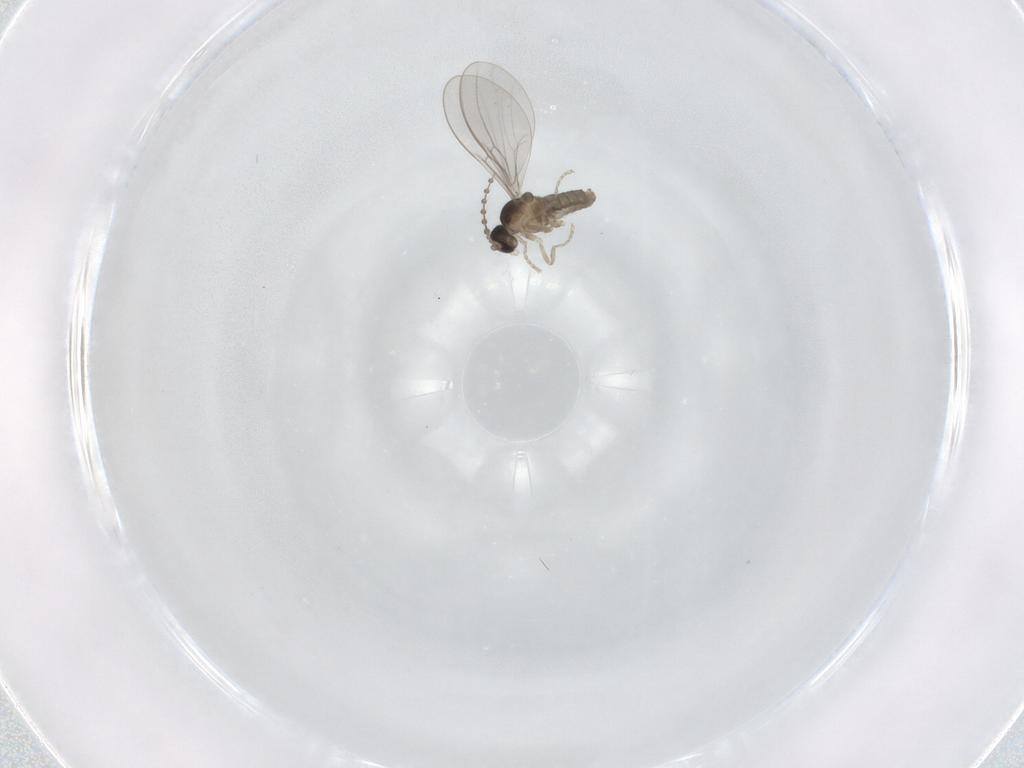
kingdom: Animalia
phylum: Arthropoda
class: Insecta
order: Diptera
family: Cecidomyiidae
